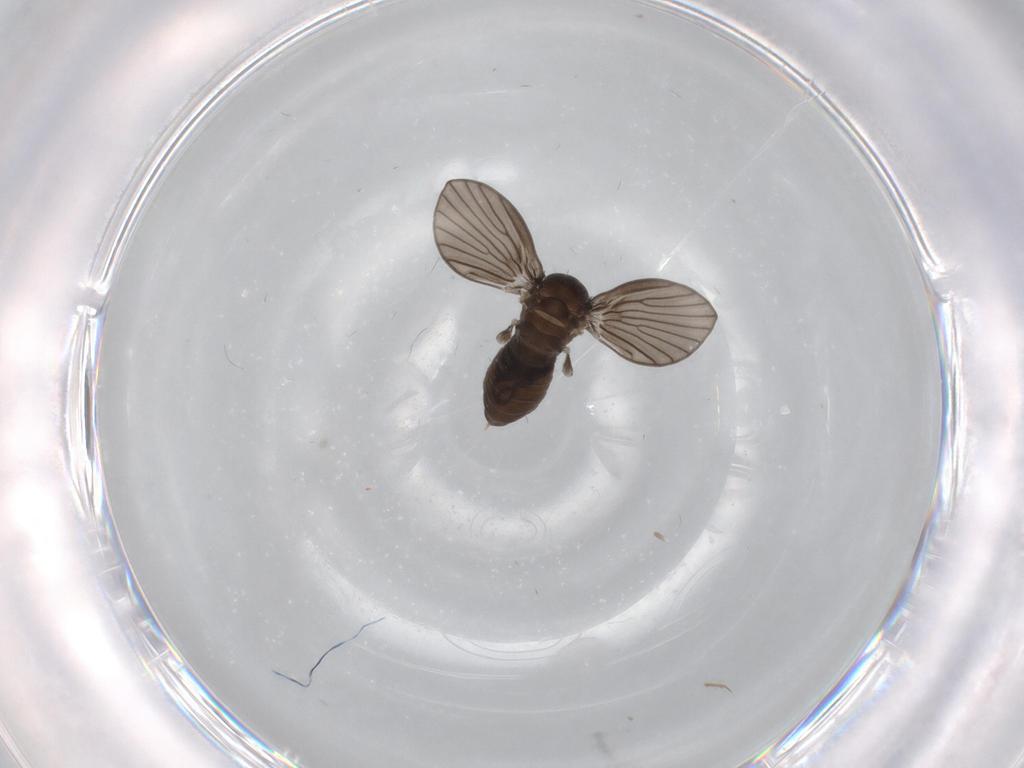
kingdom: Animalia
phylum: Arthropoda
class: Insecta
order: Diptera
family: Psychodidae
